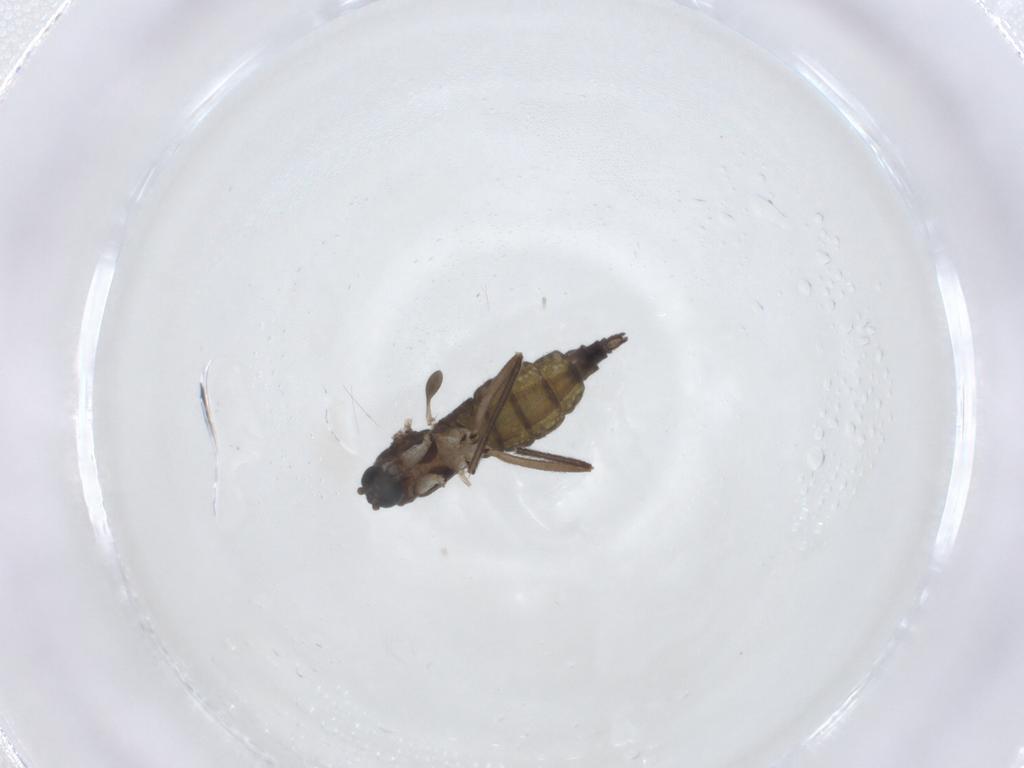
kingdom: Animalia
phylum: Arthropoda
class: Insecta
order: Diptera
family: Sciaridae
